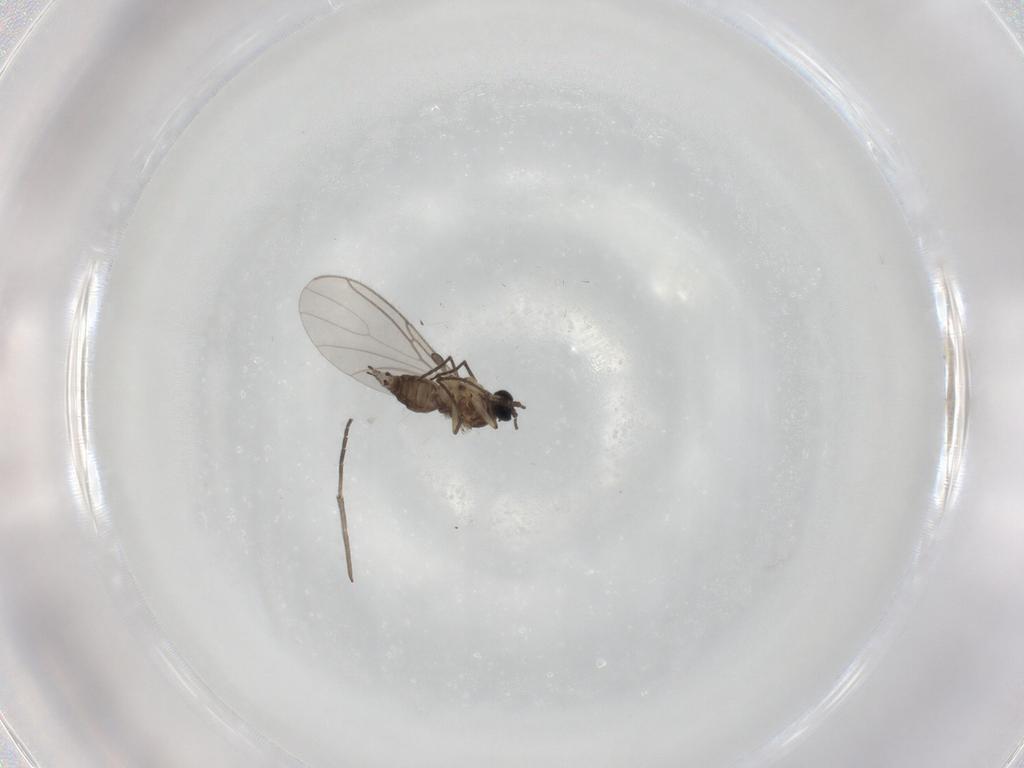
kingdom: Animalia
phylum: Arthropoda
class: Insecta
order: Diptera
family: Sciaridae
